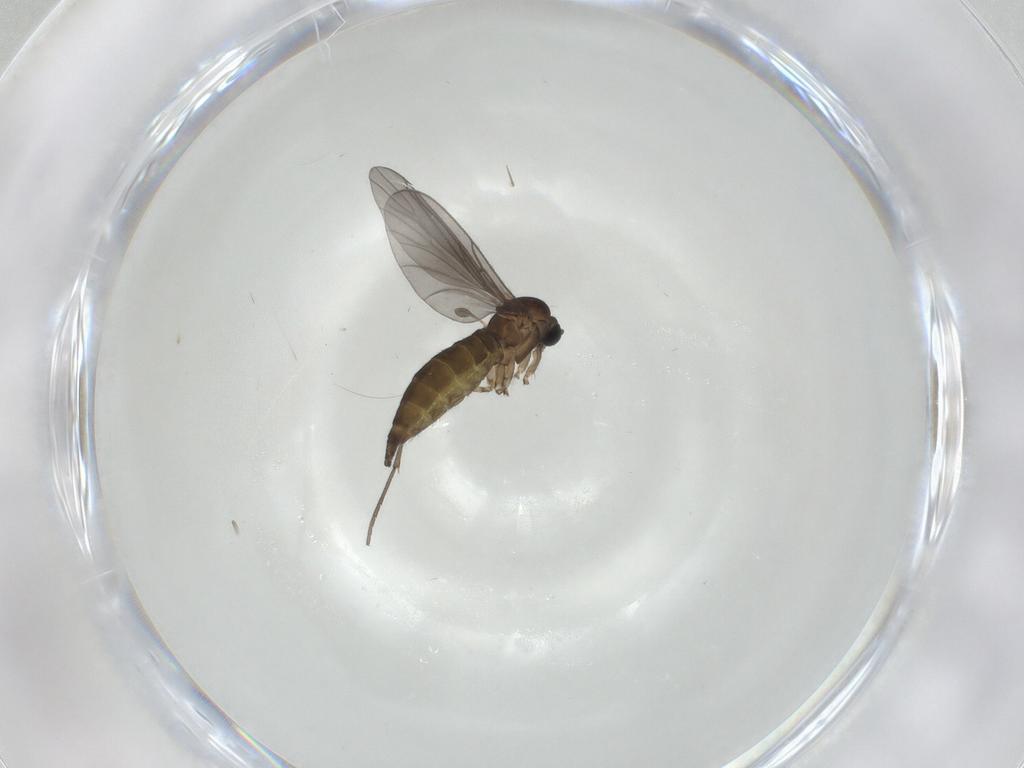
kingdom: Animalia
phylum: Arthropoda
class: Insecta
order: Diptera
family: Sciaridae
